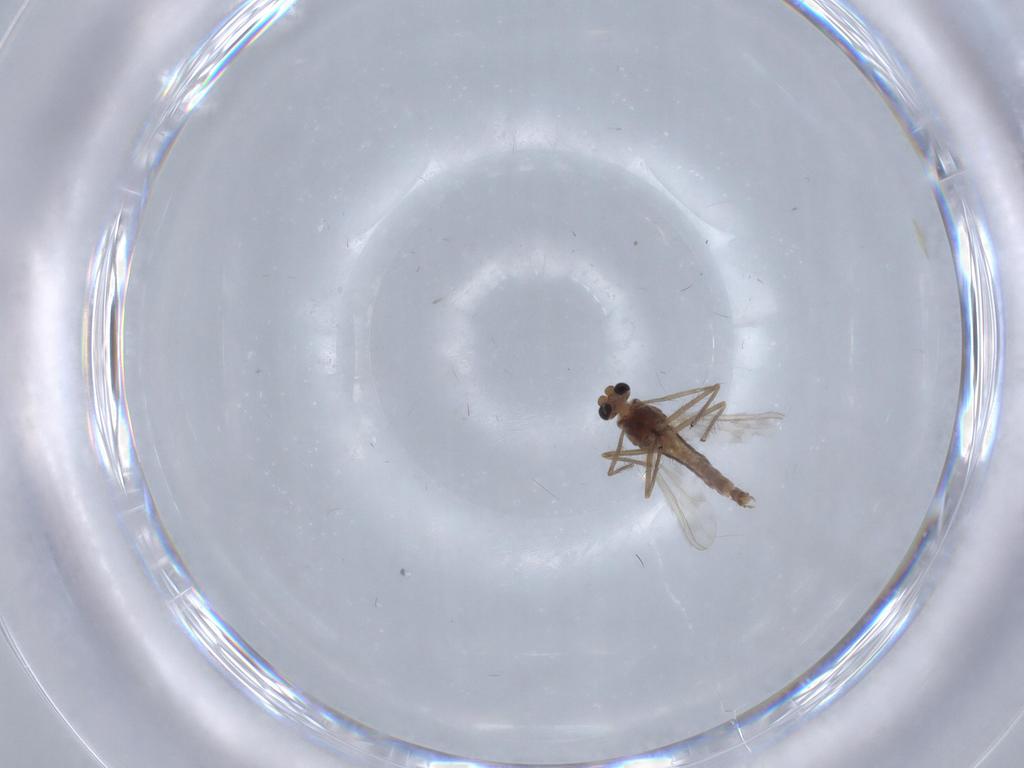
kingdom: Animalia
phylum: Arthropoda
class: Insecta
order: Diptera
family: Chironomidae
